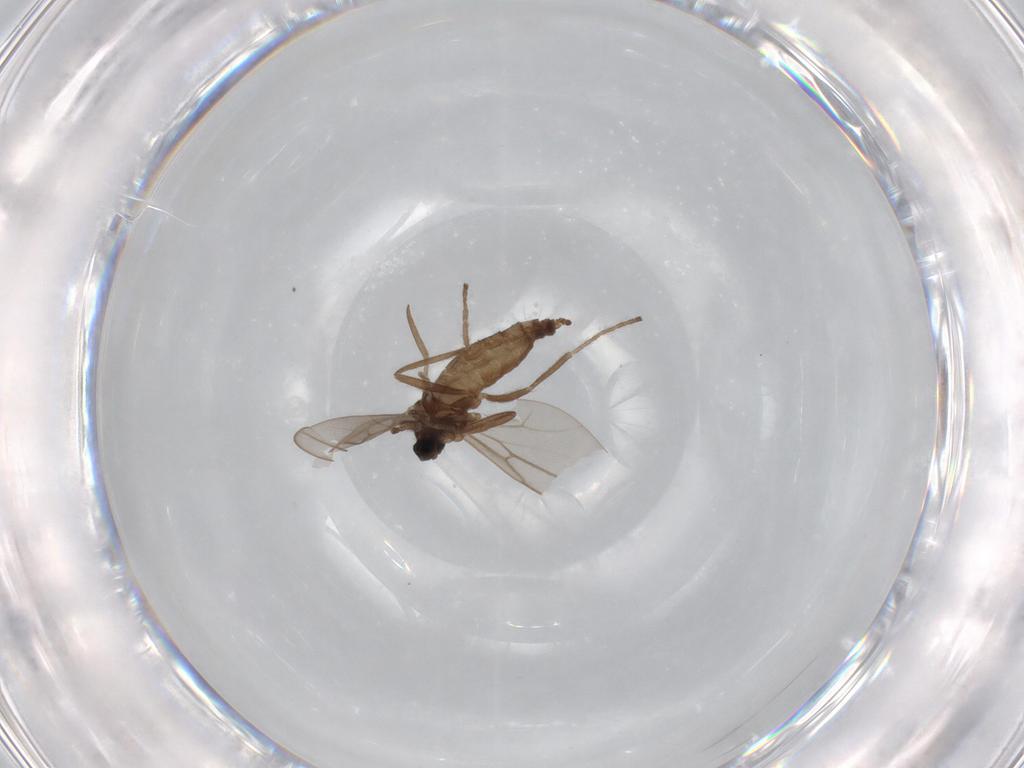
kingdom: Animalia
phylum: Arthropoda
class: Insecta
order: Diptera
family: Cecidomyiidae
